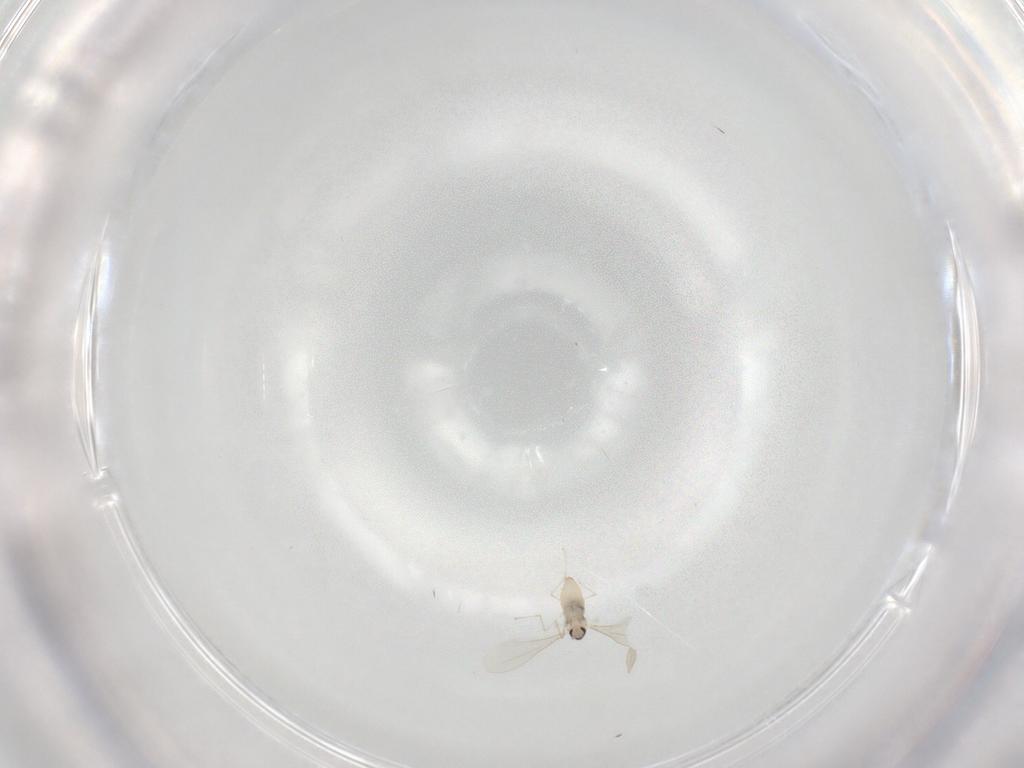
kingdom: Animalia
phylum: Arthropoda
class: Insecta
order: Diptera
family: Cecidomyiidae
